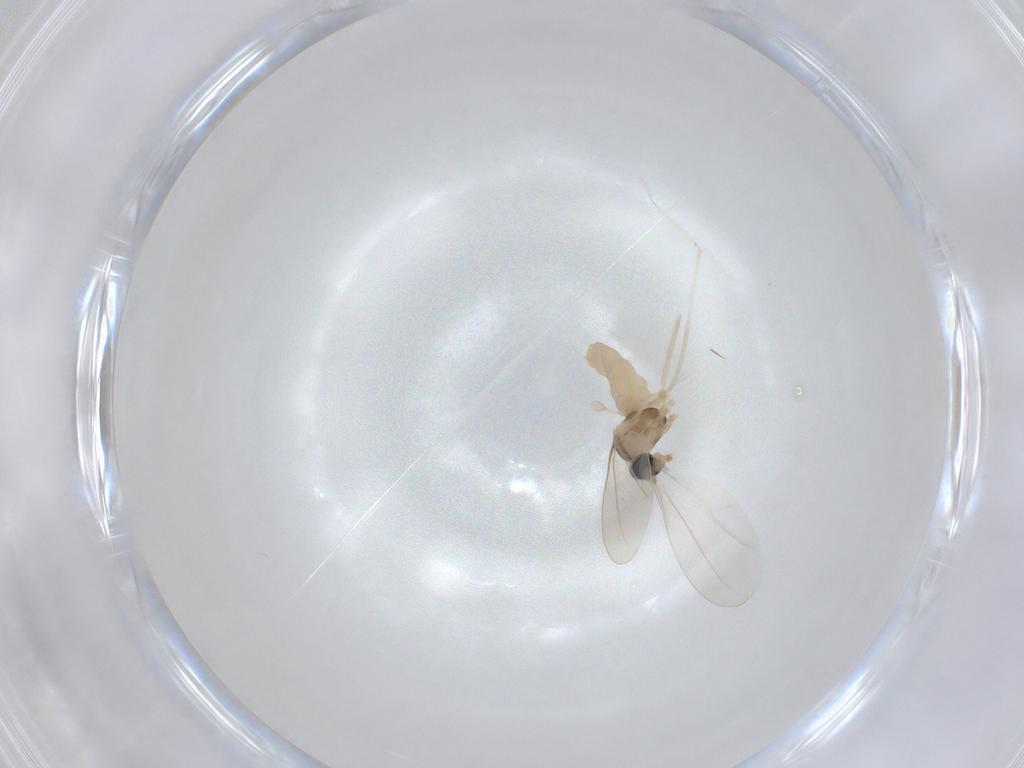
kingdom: Animalia
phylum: Arthropoda
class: Insecta
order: Diptera
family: Cecidomyiidae
